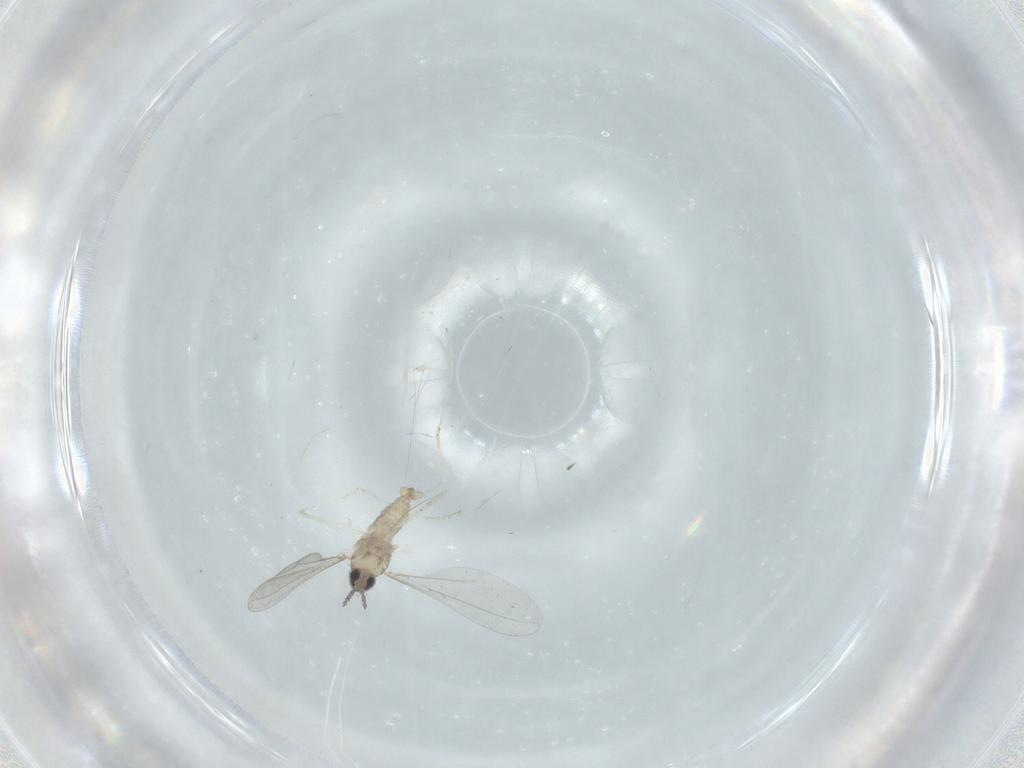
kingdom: Animalia
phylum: Arthropoda
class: Insecta
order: Diptera
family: Cecidomyiidae
